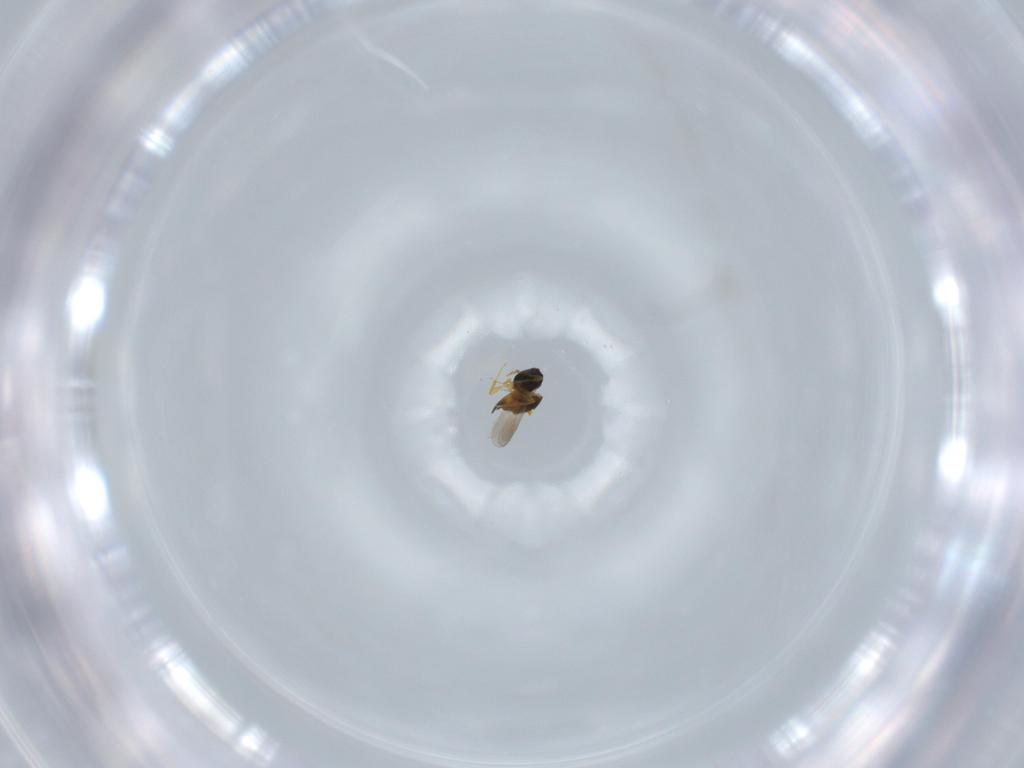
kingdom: Animalia
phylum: Arthropoda
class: Insecta
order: Hymenoptera
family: Platygastridae
